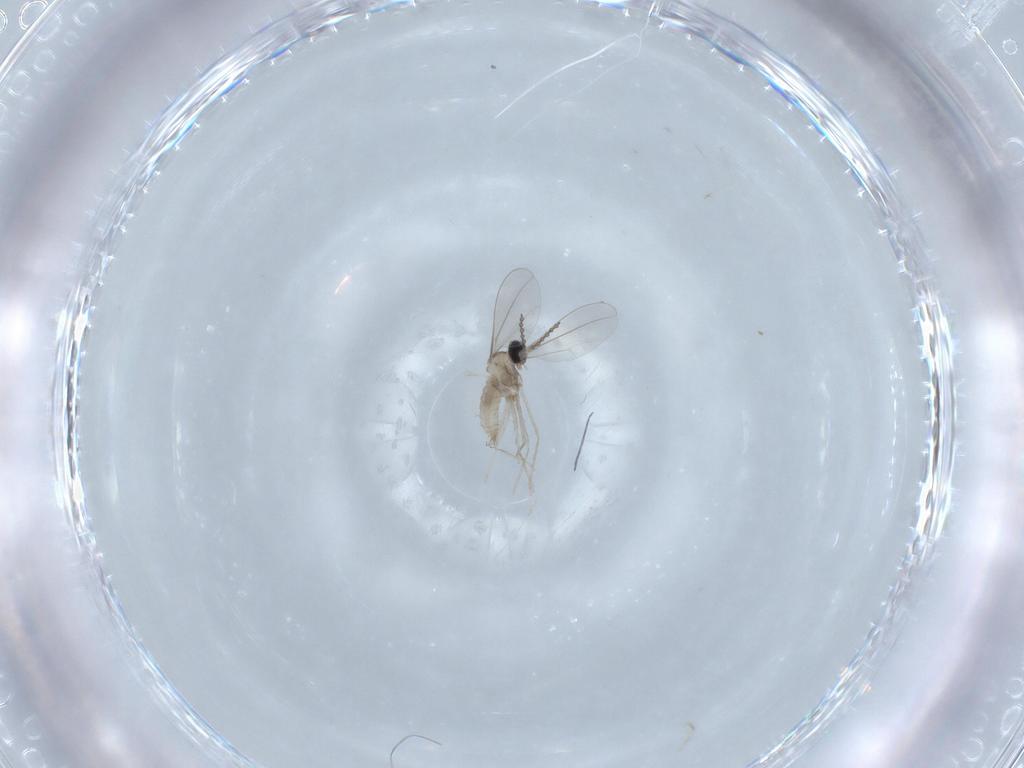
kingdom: Animalia
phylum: Arthropoda
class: Insecta
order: Diptera
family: Cecidomyiidae
